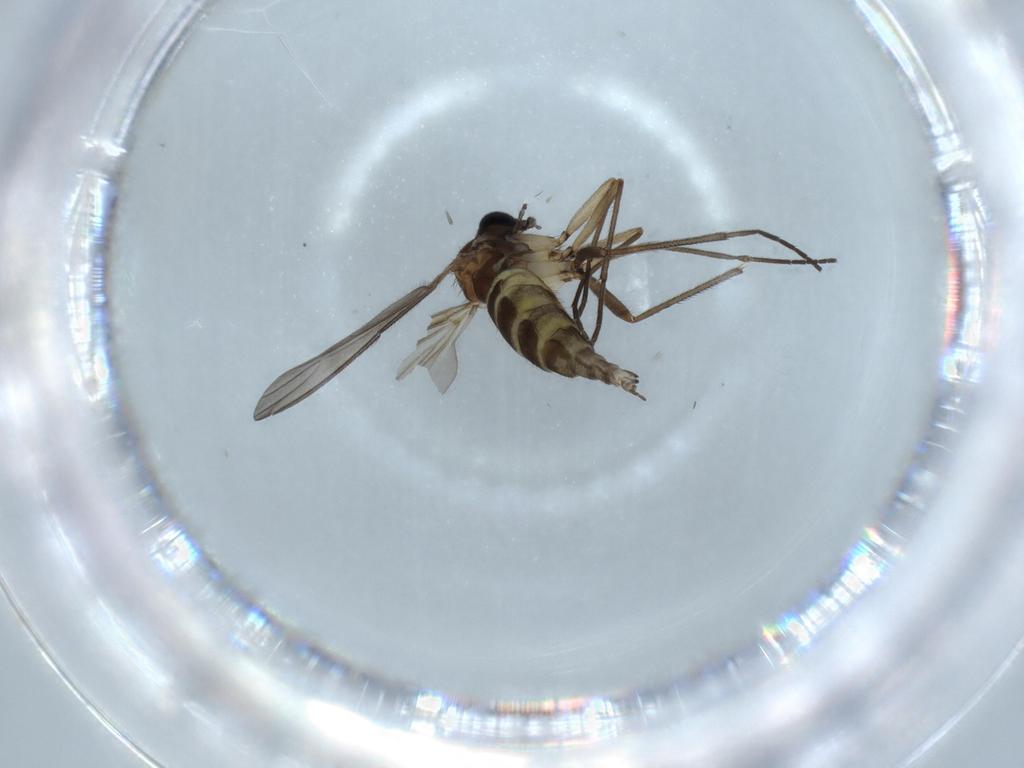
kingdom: Animalia
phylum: Arthropoda
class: Insecta
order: Diptera
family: Sciaridae
